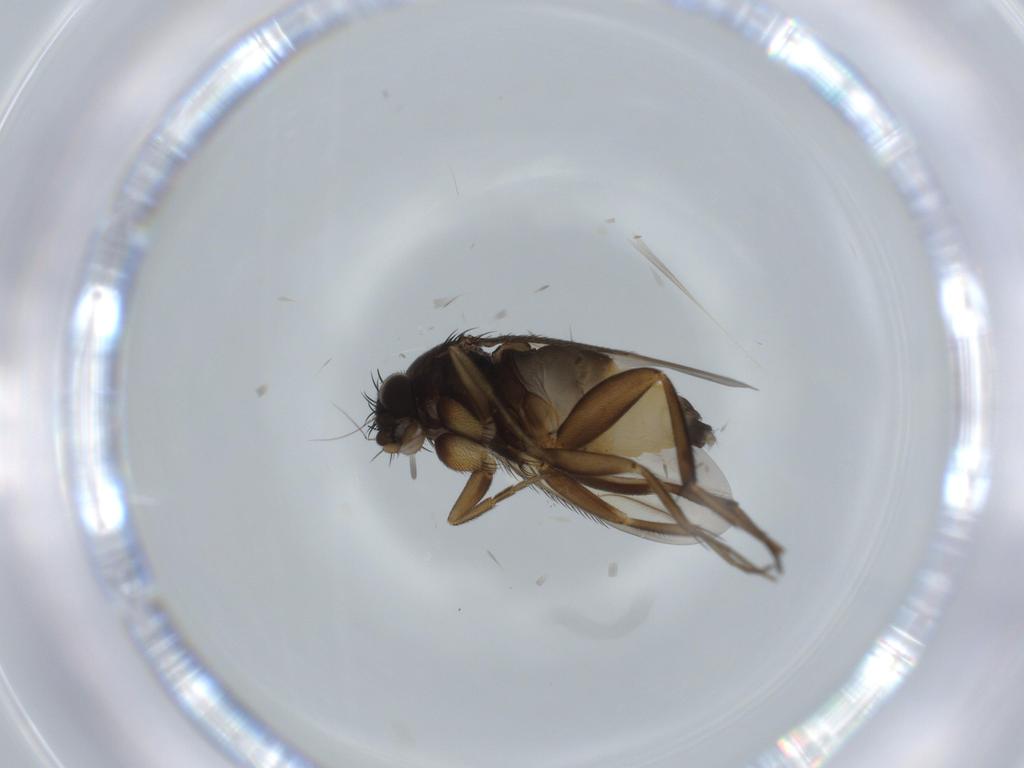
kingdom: Animalia
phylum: Arthropoda
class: Insecta
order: Diptera
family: Phoridae
